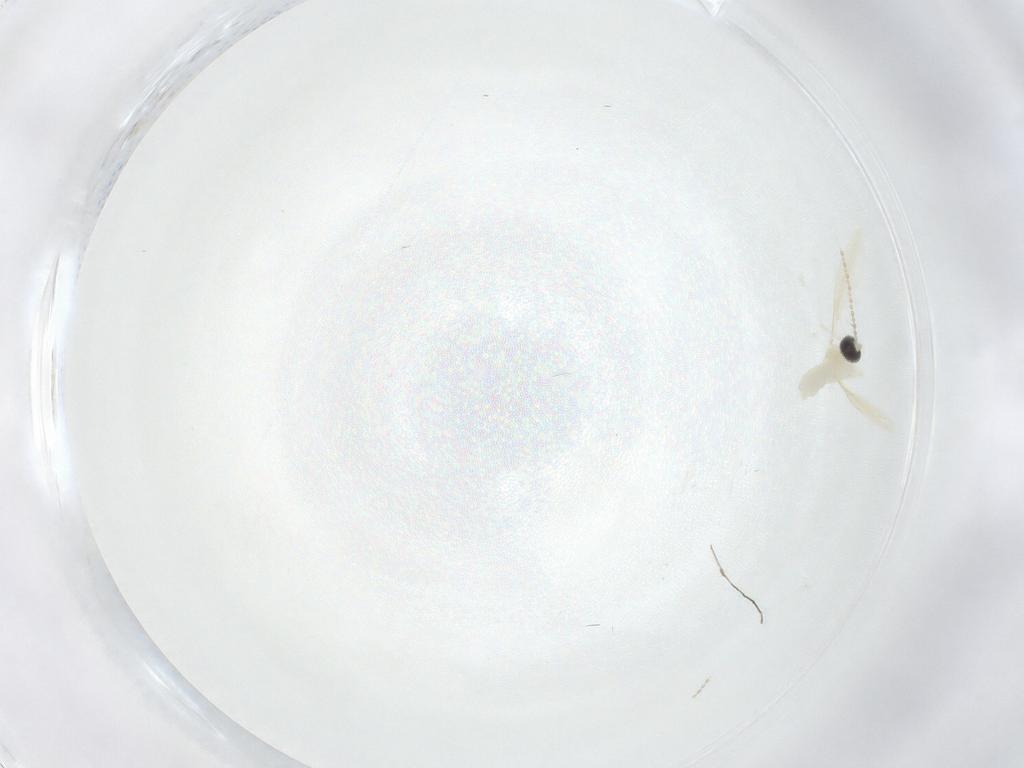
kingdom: Animalia
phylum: Arthropoda
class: Insecta
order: Diptera
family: Cecidomyiidae
